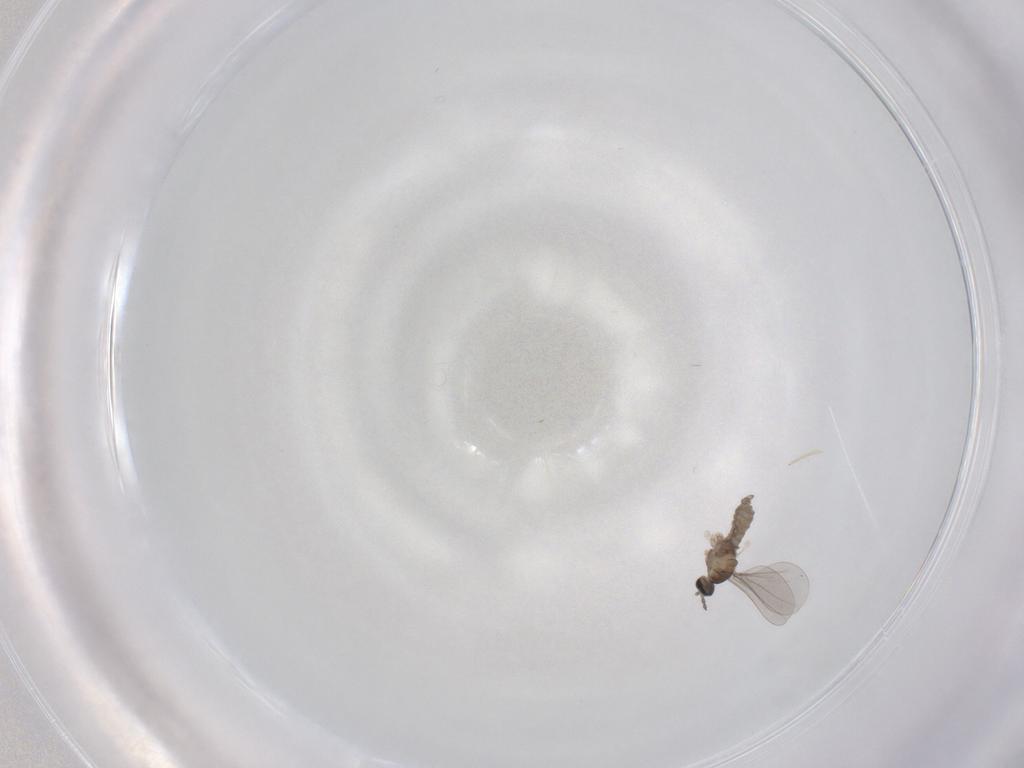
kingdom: Animalia
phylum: Arthropoda
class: Insecta
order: Diptera
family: Cecidomyiidae
